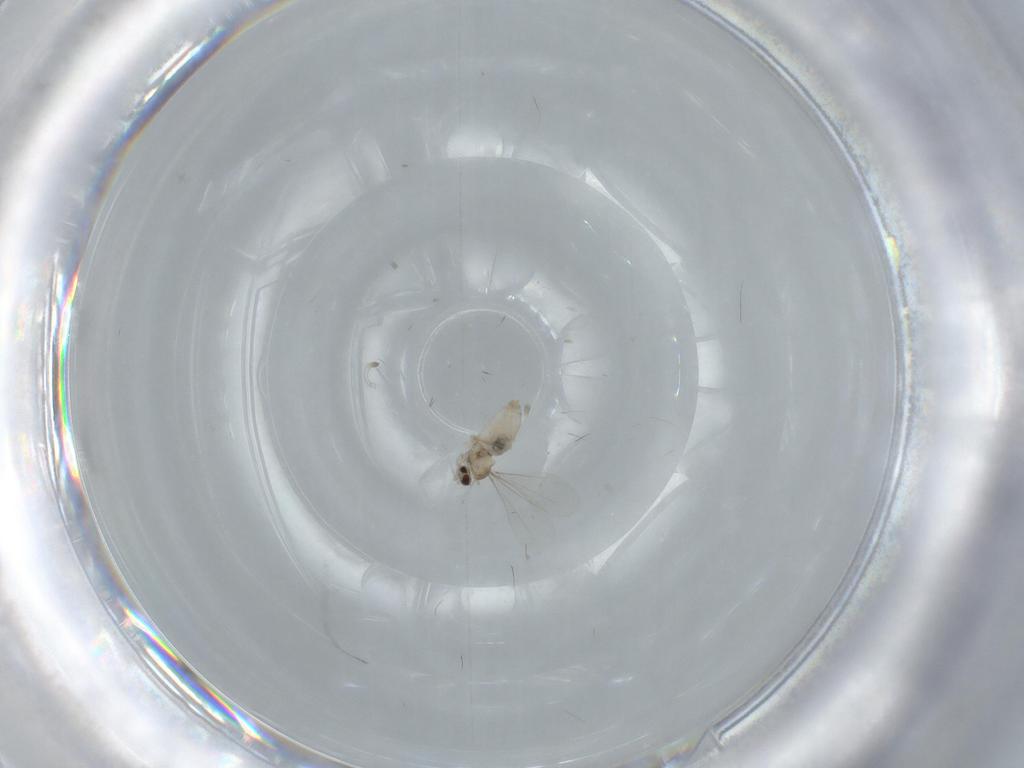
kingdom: Animalia
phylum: Arthropoda
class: Insecta
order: Diptera
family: Cecidomyiidae
